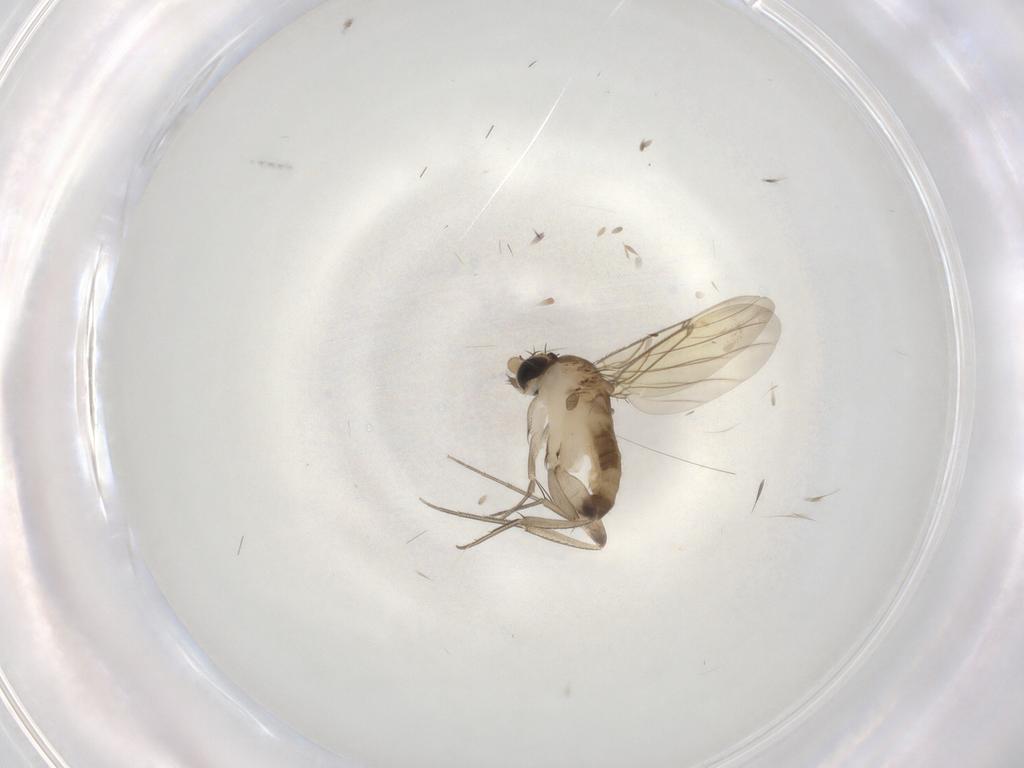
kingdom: Animalia
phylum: Arthropoda
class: Insecta
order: Diptera
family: Phoridae
